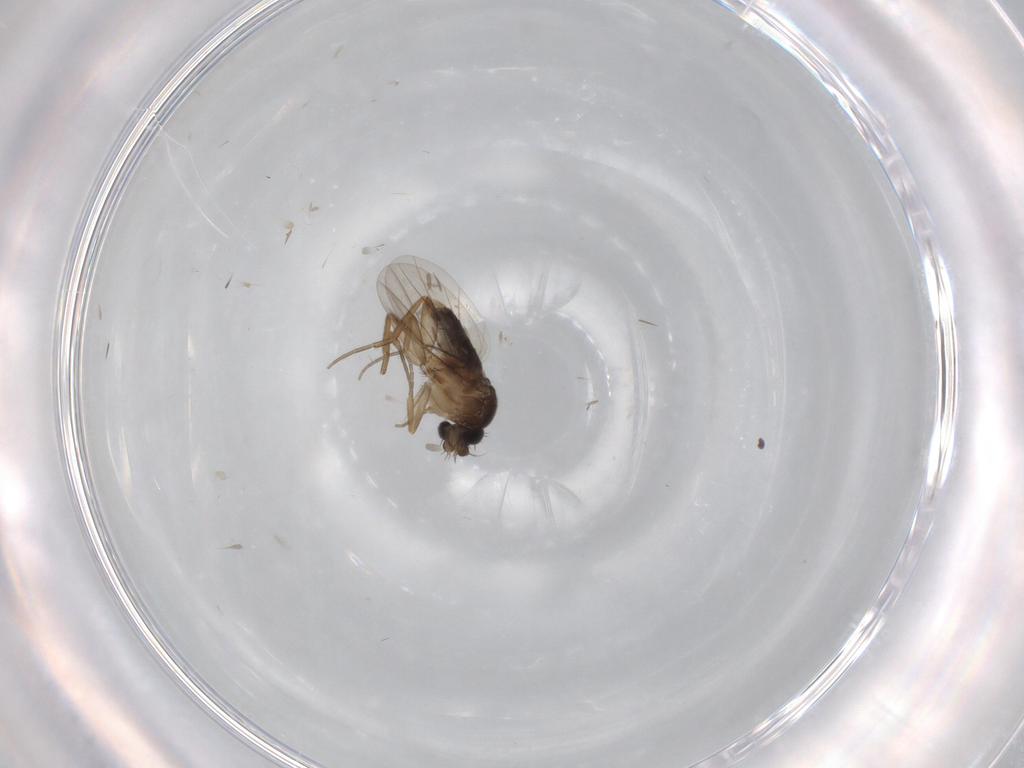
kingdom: Animalia
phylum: Arthropoda
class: Insecta
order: Diptera
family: Phoridae
